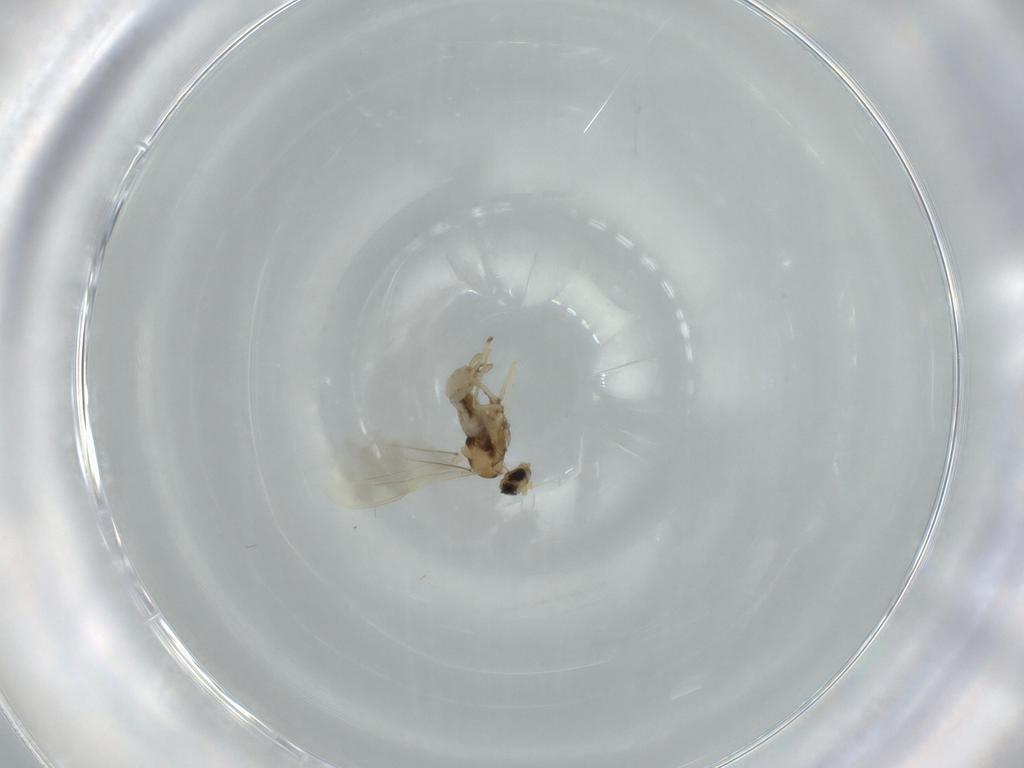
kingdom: Animalia
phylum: Arthropoda
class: Insecta
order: Diptera
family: Cecidomyiidae
